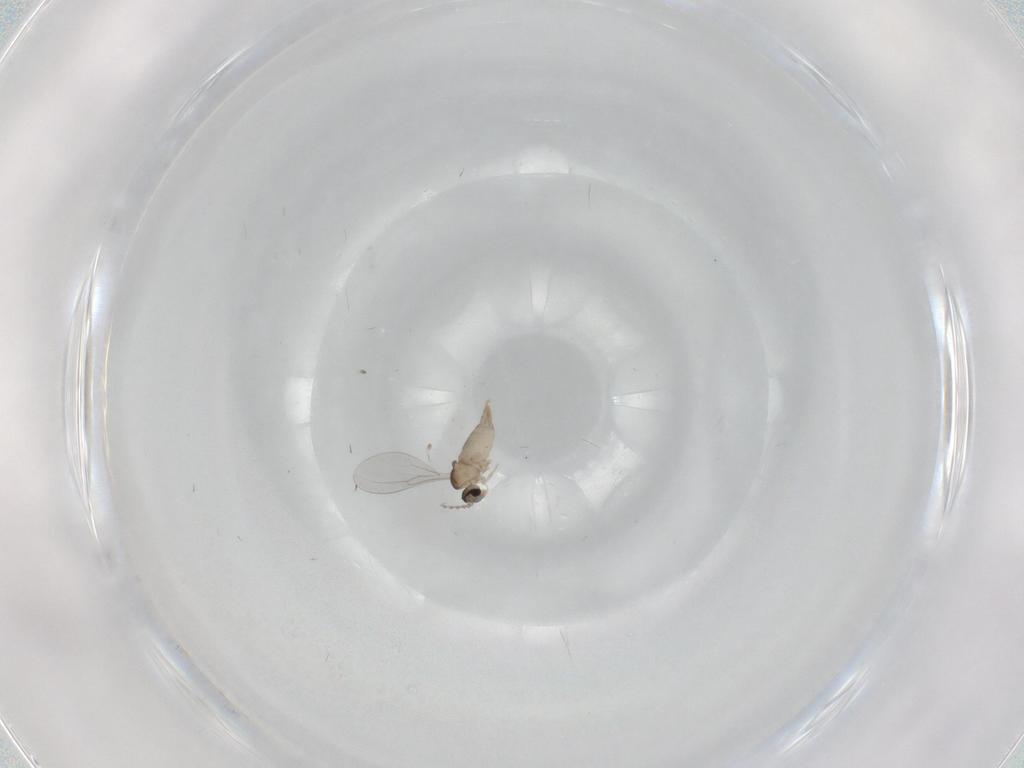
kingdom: Animalia
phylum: Arthropoda
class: Insecta
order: Diptera
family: Cecidomyiidae
